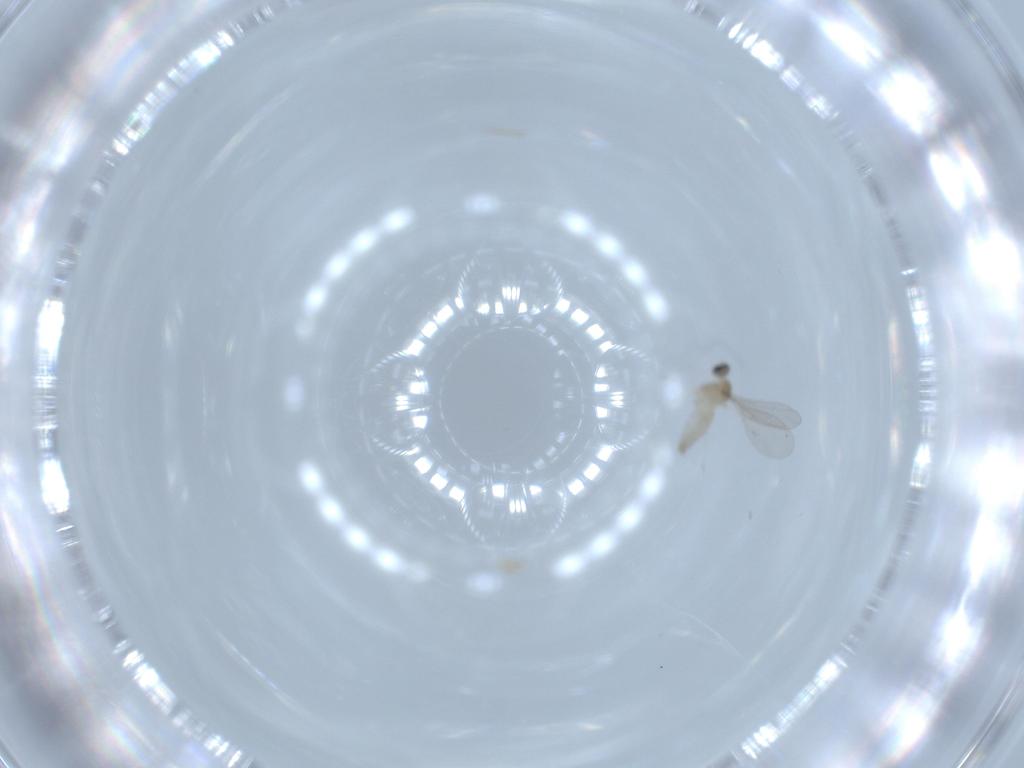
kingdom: Animalia
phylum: Arthropoda
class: Insecta
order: Diptera
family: Cecidomyiidae
